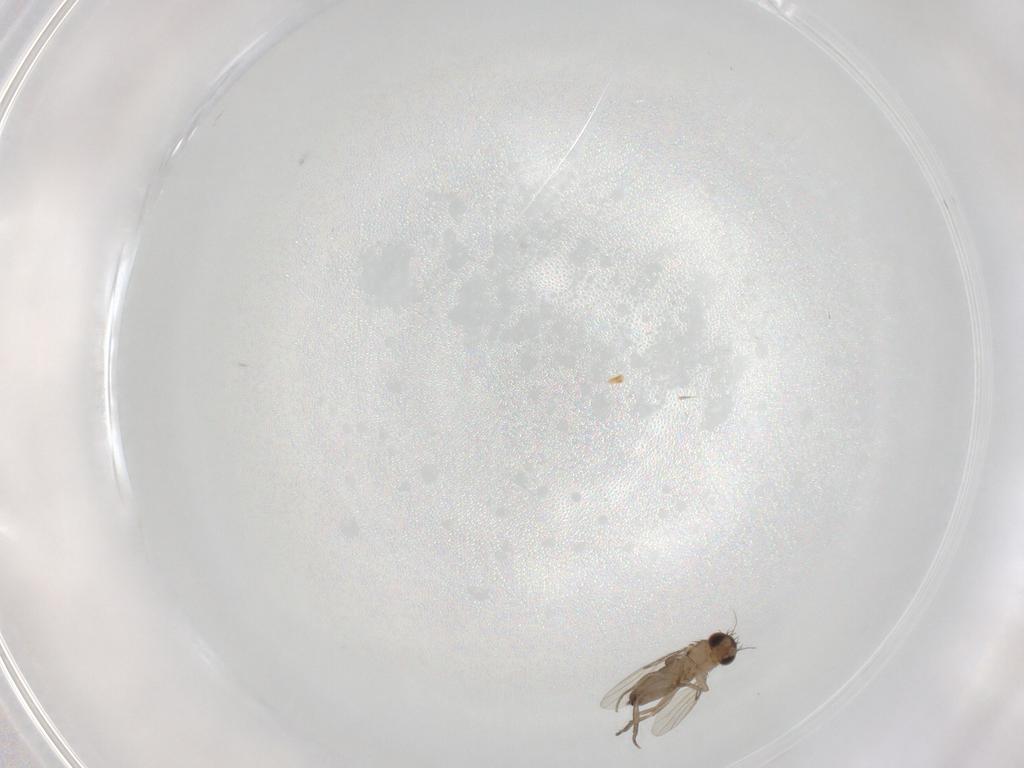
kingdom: Animalia
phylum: Arthropoda
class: Insecta
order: Diptera
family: Phoridae
